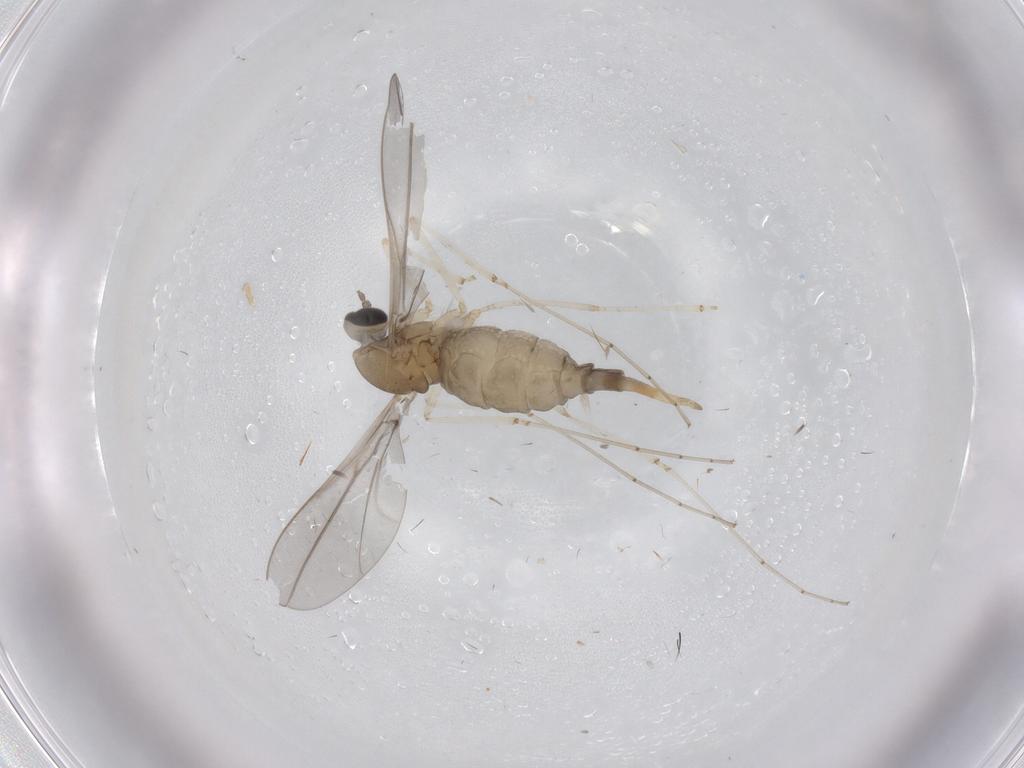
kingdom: Animalia
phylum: Arthropoda
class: Insecta
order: Diptera
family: Cecidomyiidae
